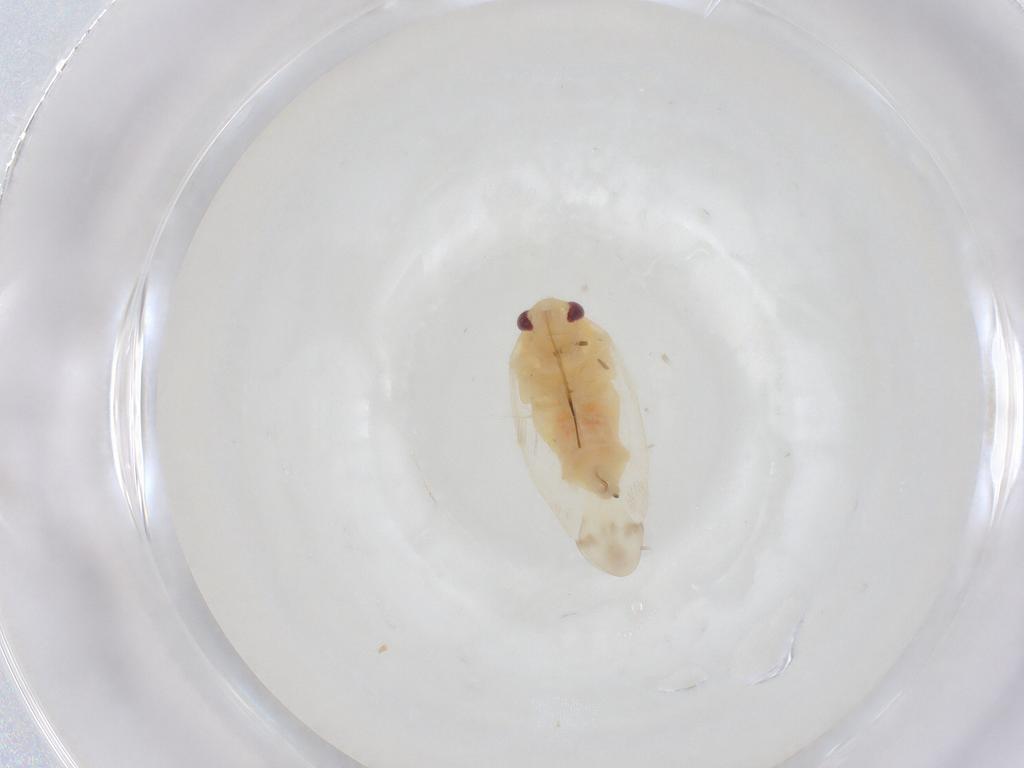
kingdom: Animalia
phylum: Arthropoda
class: Insecta
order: Hemiptera
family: Miridae
